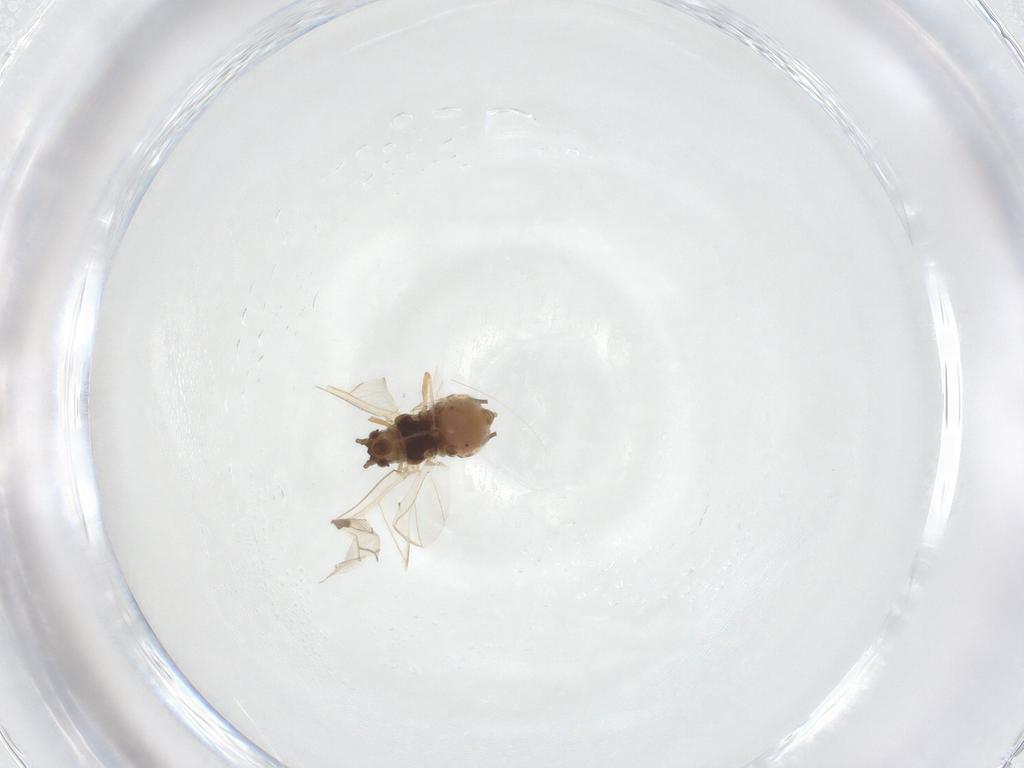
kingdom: Animalia
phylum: Arthropoda
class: Insecta
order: Hemiptera
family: Aphididae
